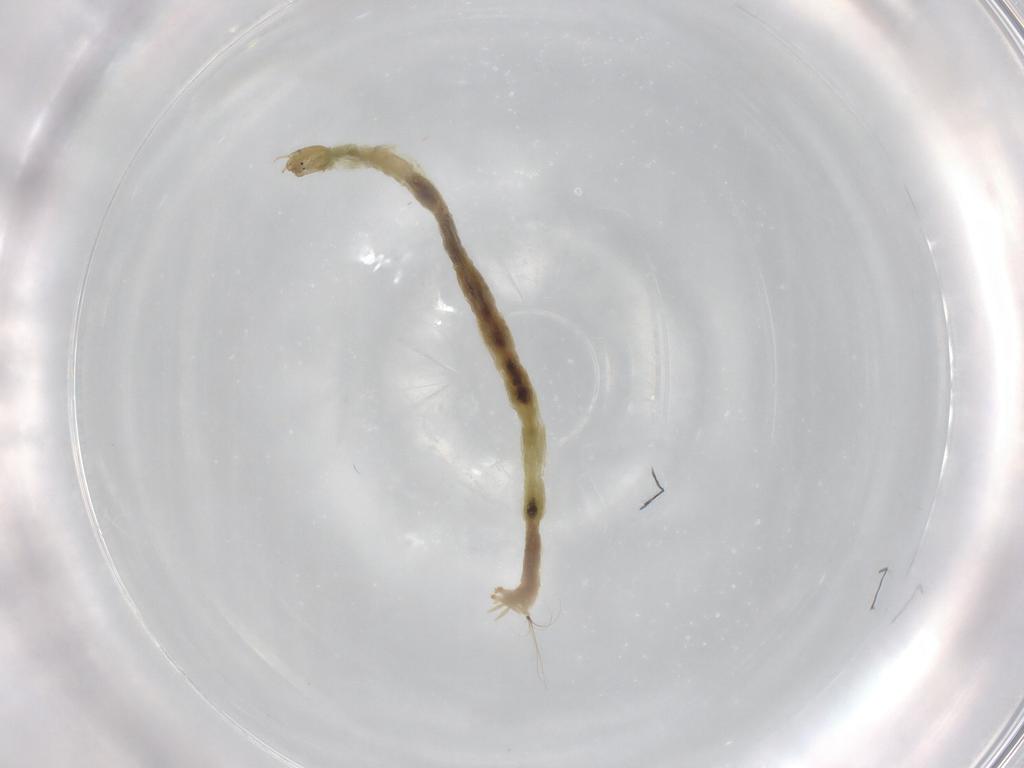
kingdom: Animalia
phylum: Arthropoda
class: Insecta
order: Diptera
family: Chironomidae
